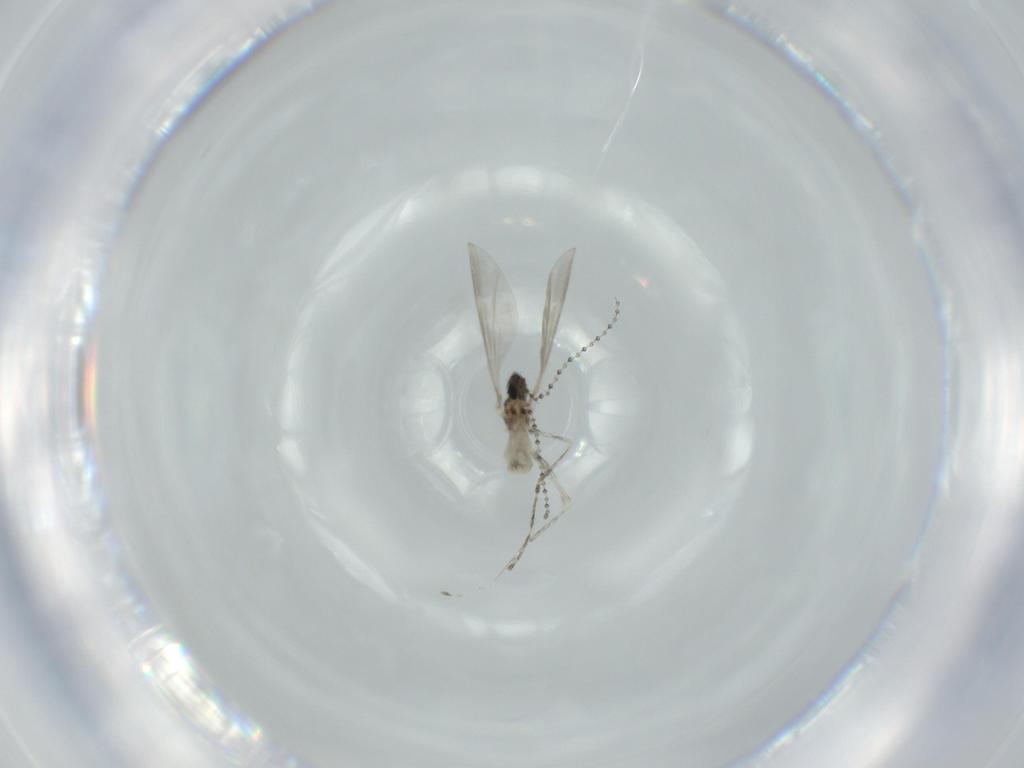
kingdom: Animalia
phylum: Arthropoda
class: Insecta
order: Diptera
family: Cecidomyiidae
